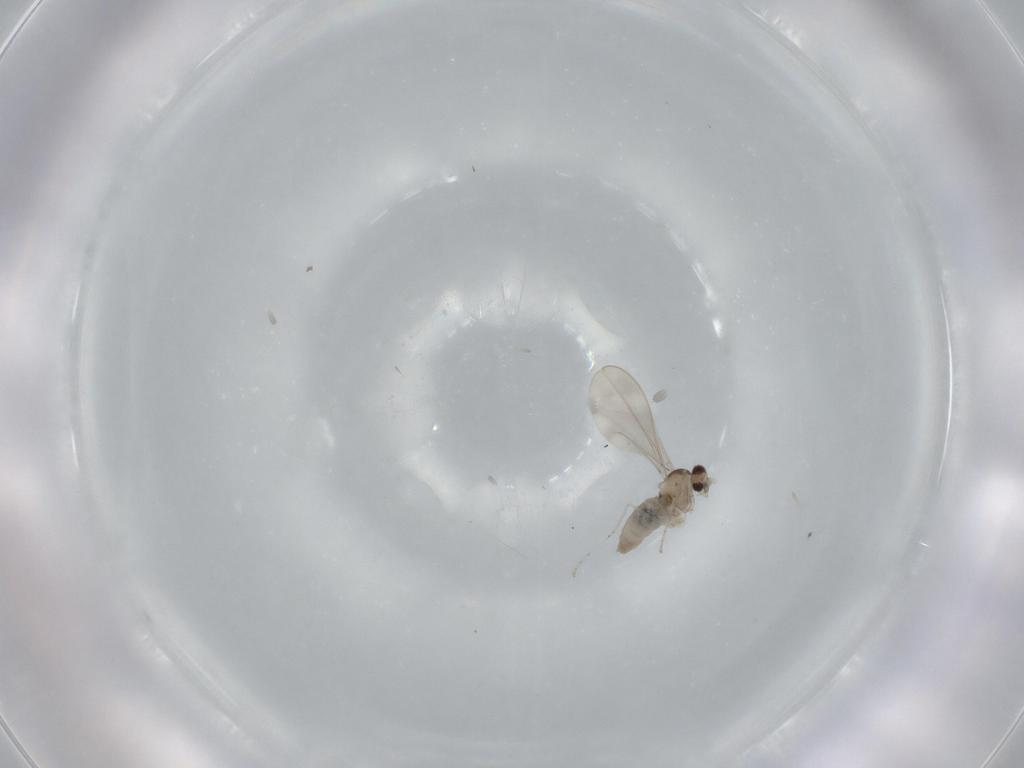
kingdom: Animalia
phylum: Arthropoda
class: Insecta
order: Diptera
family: Cecidomyiidae
